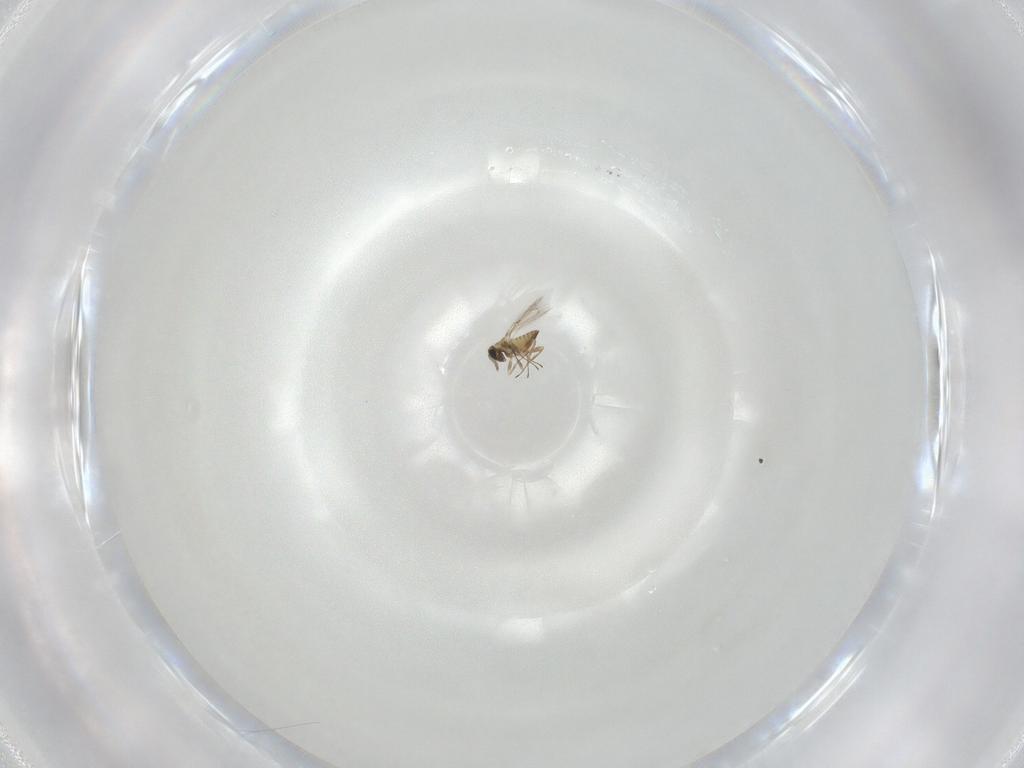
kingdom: Animalia
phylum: Arthropoda
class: Insecta
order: Hymenoptera
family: Trichogrammatidae
